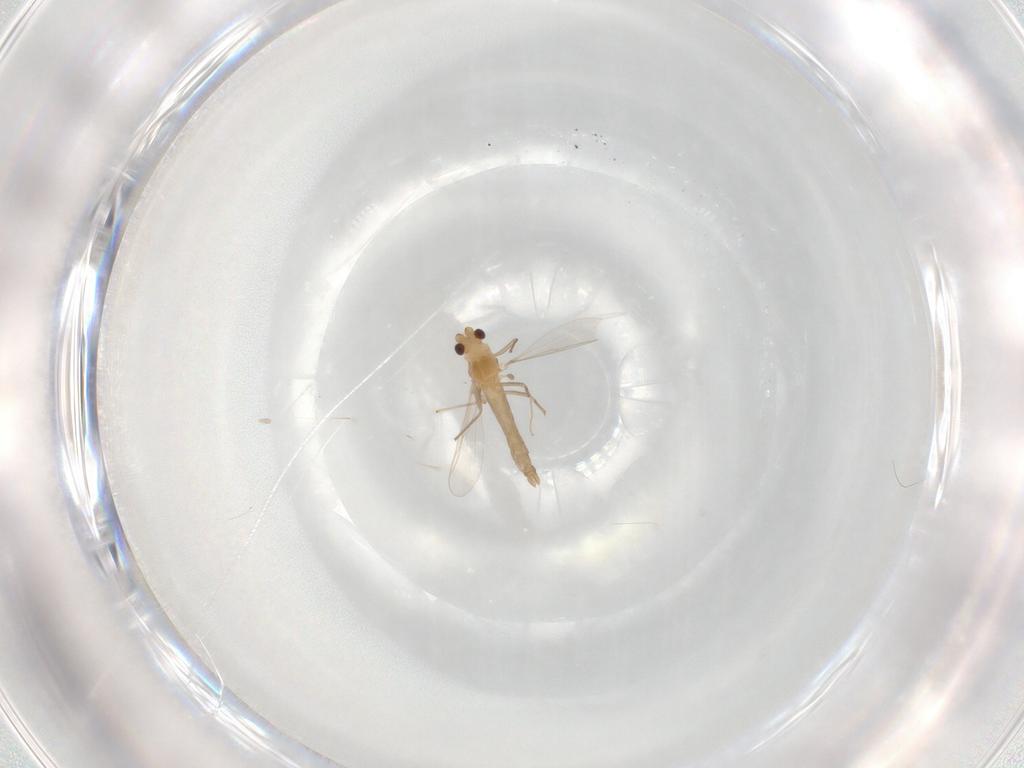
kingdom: Animalia
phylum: Arthropoda
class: Insecta
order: Diptera
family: Chironomidae
